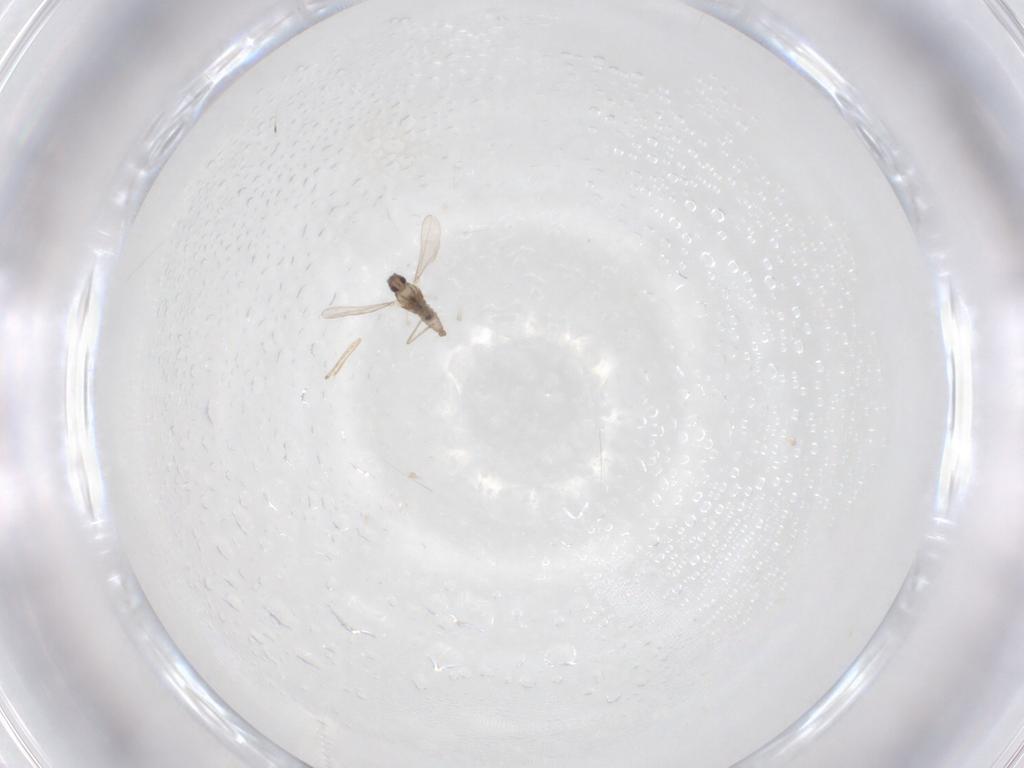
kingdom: Animalia
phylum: Arthropoda
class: Insecta
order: Diptera
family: Cecidomyiidae
